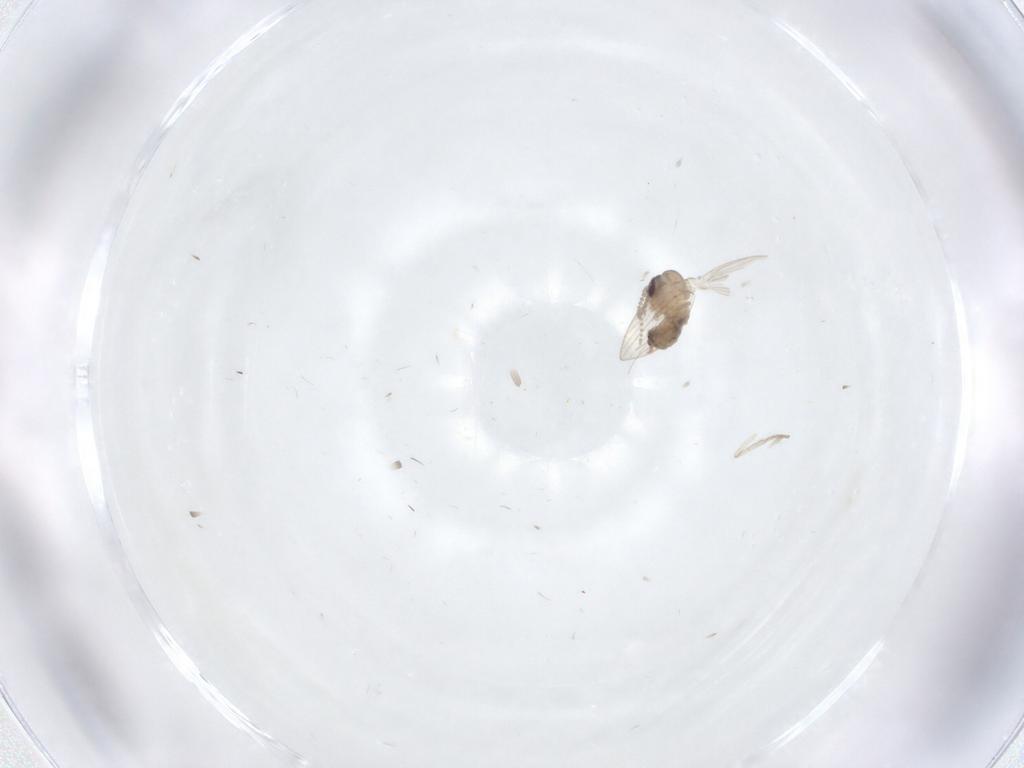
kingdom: Animalia
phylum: Arthropoda
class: Insecta
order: Diptera
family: Psychodidae
